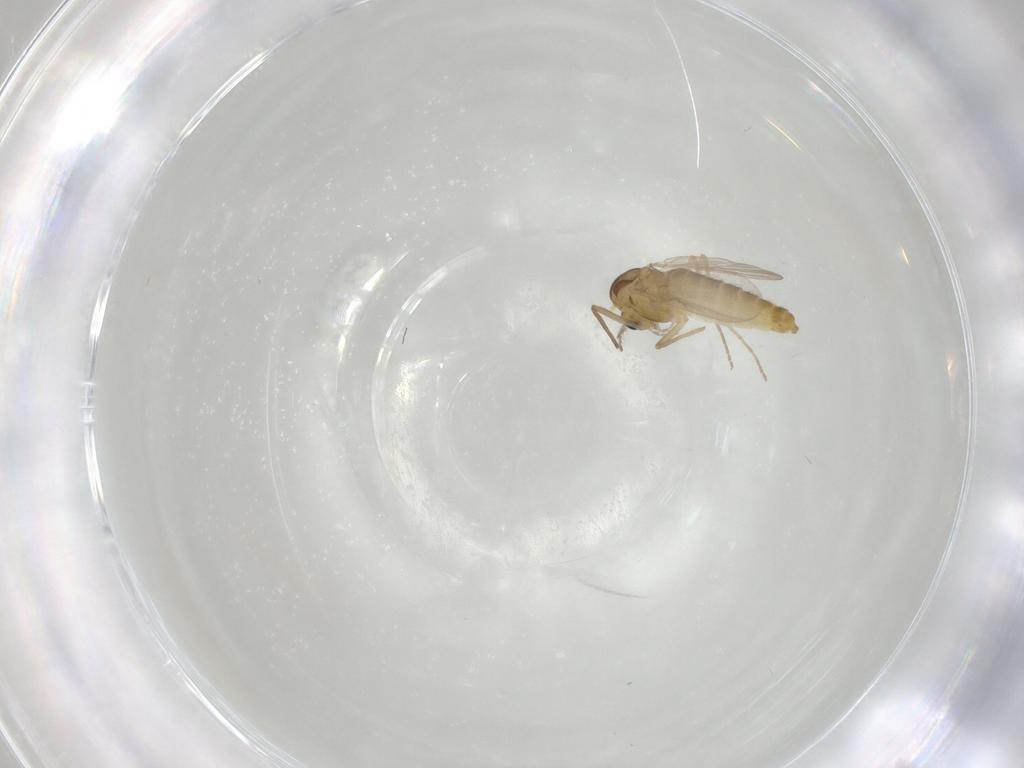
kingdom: Animalia
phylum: Arthropoda
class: Insecta
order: Diptera
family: Chironomidae
